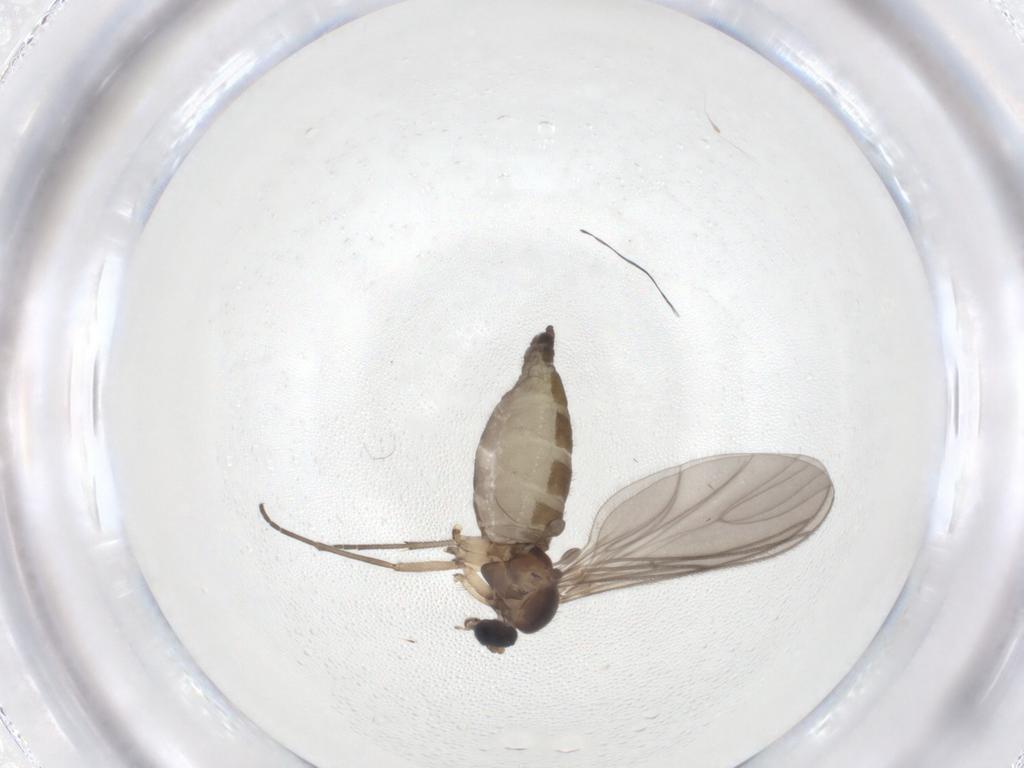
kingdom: Animalia
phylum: Arthropoda
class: Insecta
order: Diptera
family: Sciaridae
